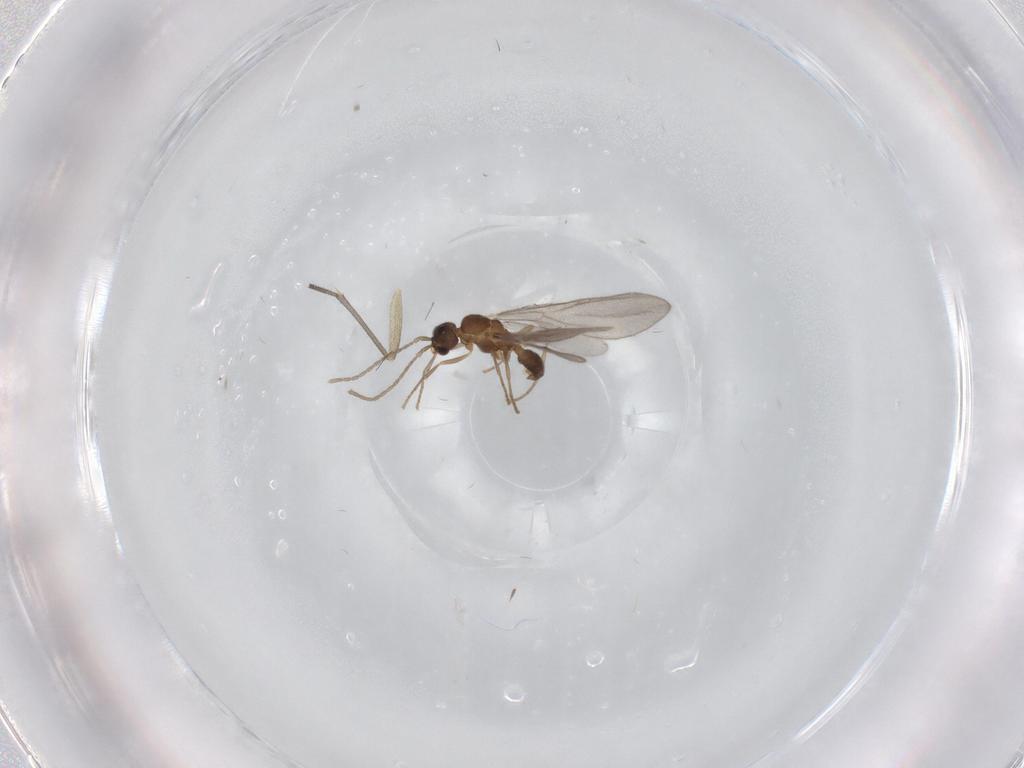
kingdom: Animalia
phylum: Arthropoda
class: Insecta
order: Hymenoptera
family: Formicidae
